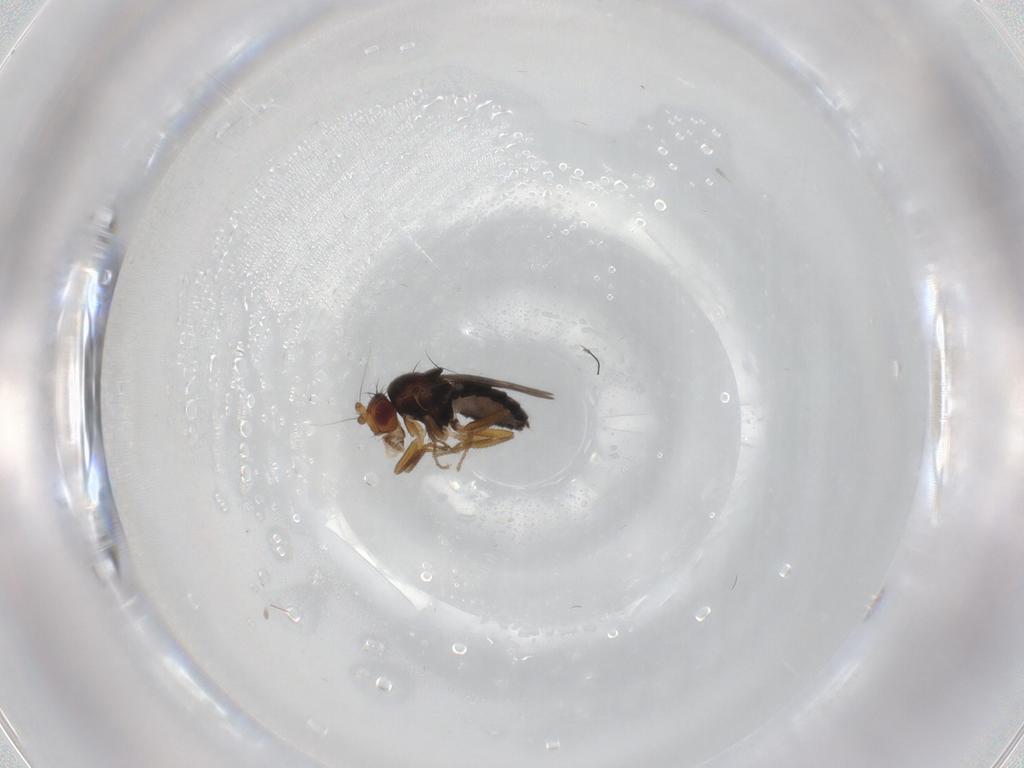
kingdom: Animalia
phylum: Arthropoda
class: Insecta
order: Diptera
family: Sphaeroceridae
